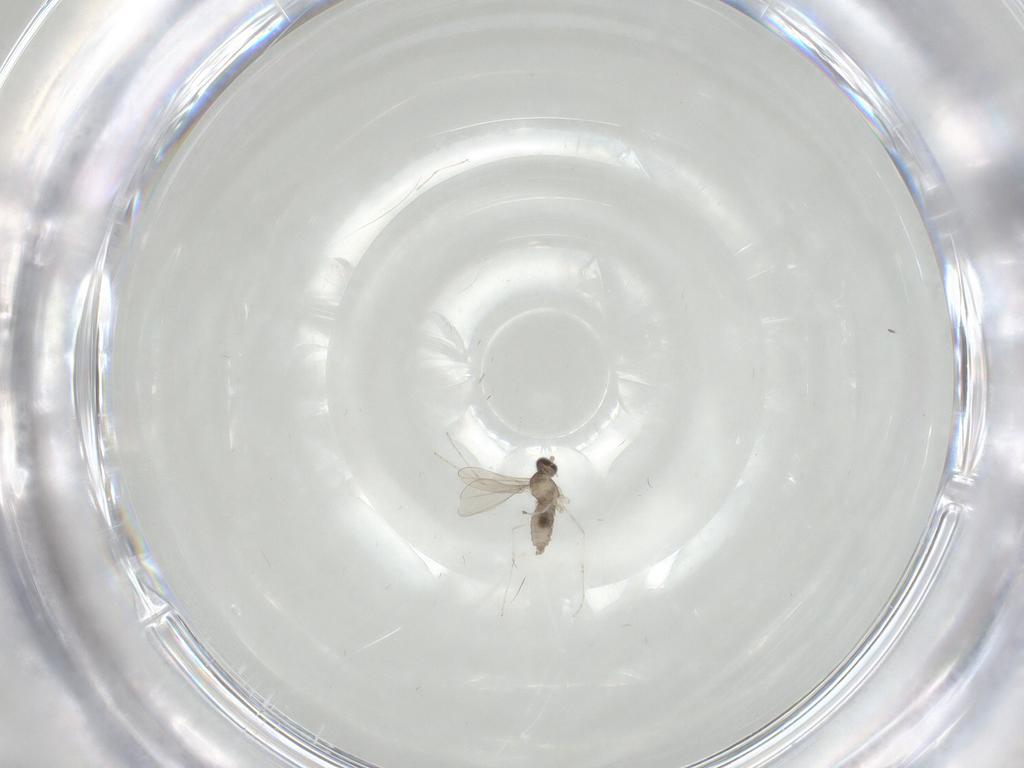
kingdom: Animalia
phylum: Arthropoda
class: Insecta
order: Diptera
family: Cecidomyiidae
